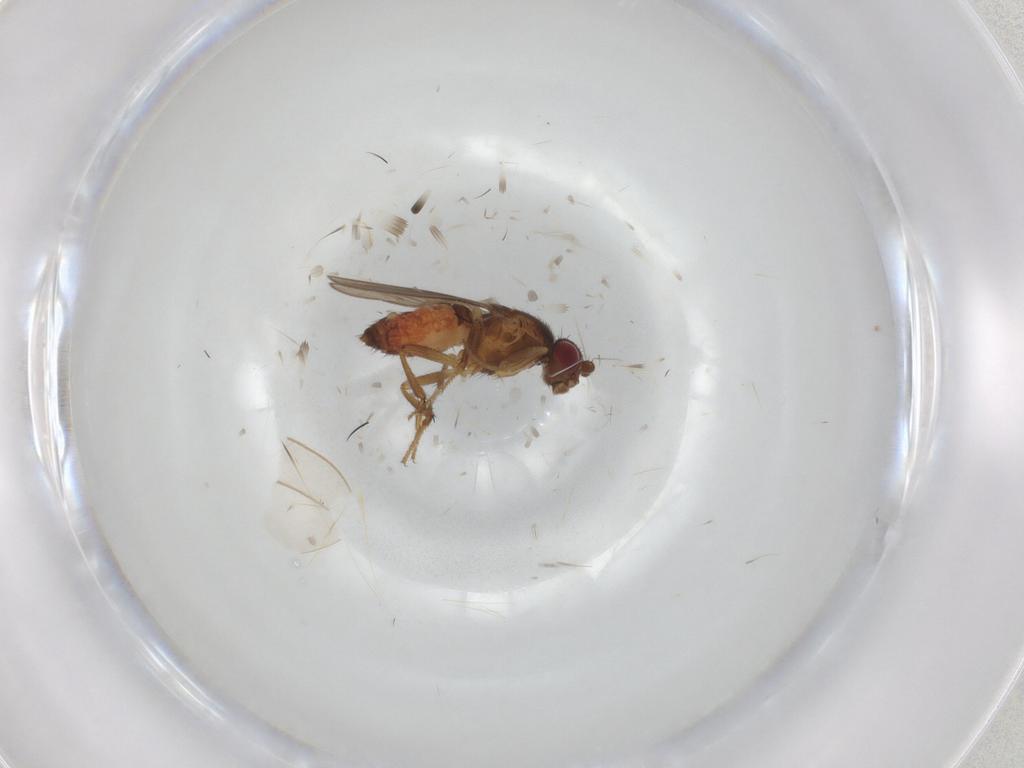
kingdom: Animalia
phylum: Arthropoda
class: Insecta
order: Diptera
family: Sphaeroceridae
